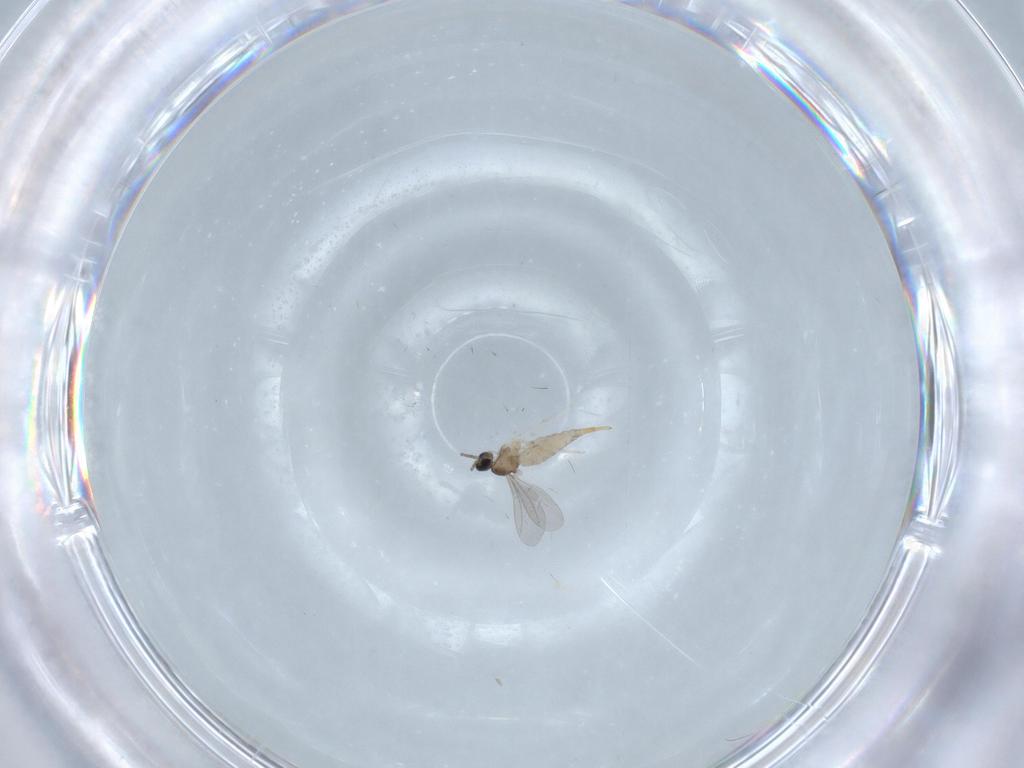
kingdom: Animalia
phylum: Arthropoda
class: Insecta
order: Diptera
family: Cecidomyiidae
